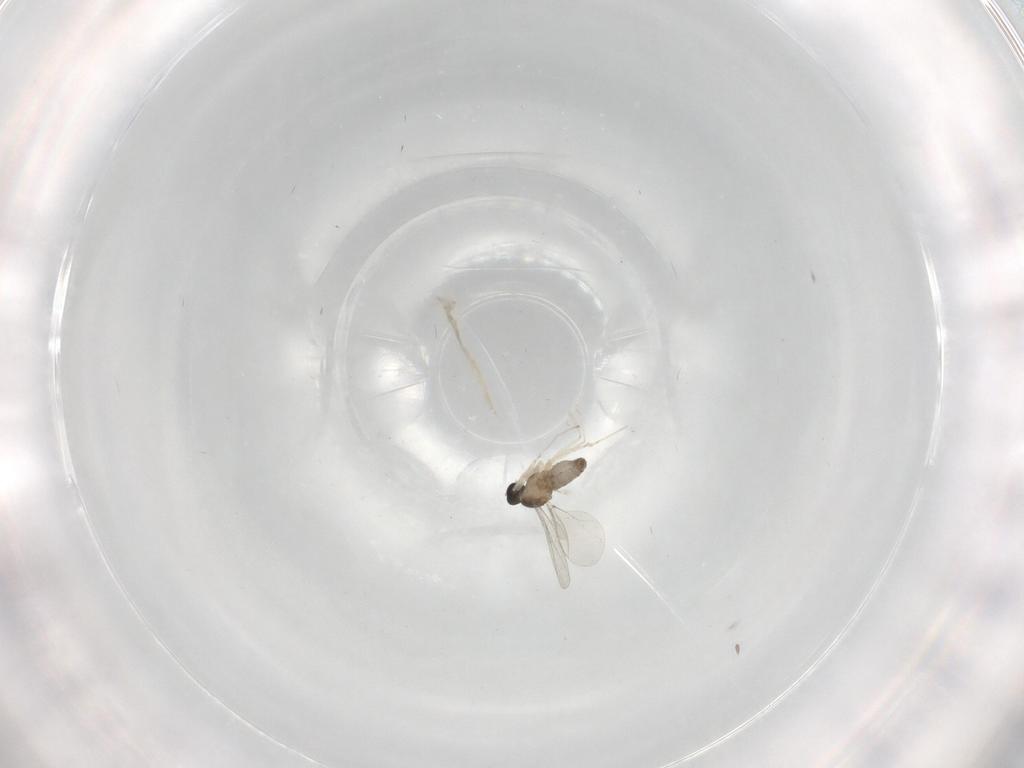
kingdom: Animalia
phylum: Arthropoda
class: Insecta
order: Diptera
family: Cecidomyiidae
